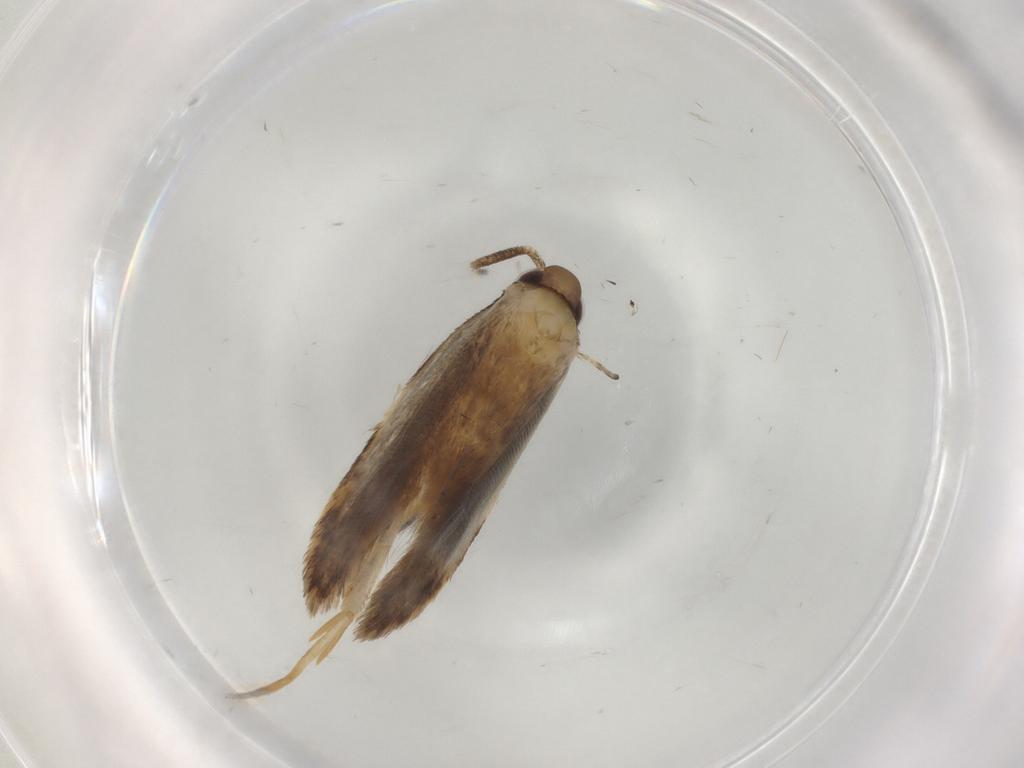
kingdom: Animalia
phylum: Arthropoda
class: Insecta
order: Lepidoptera
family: Autostichidae
